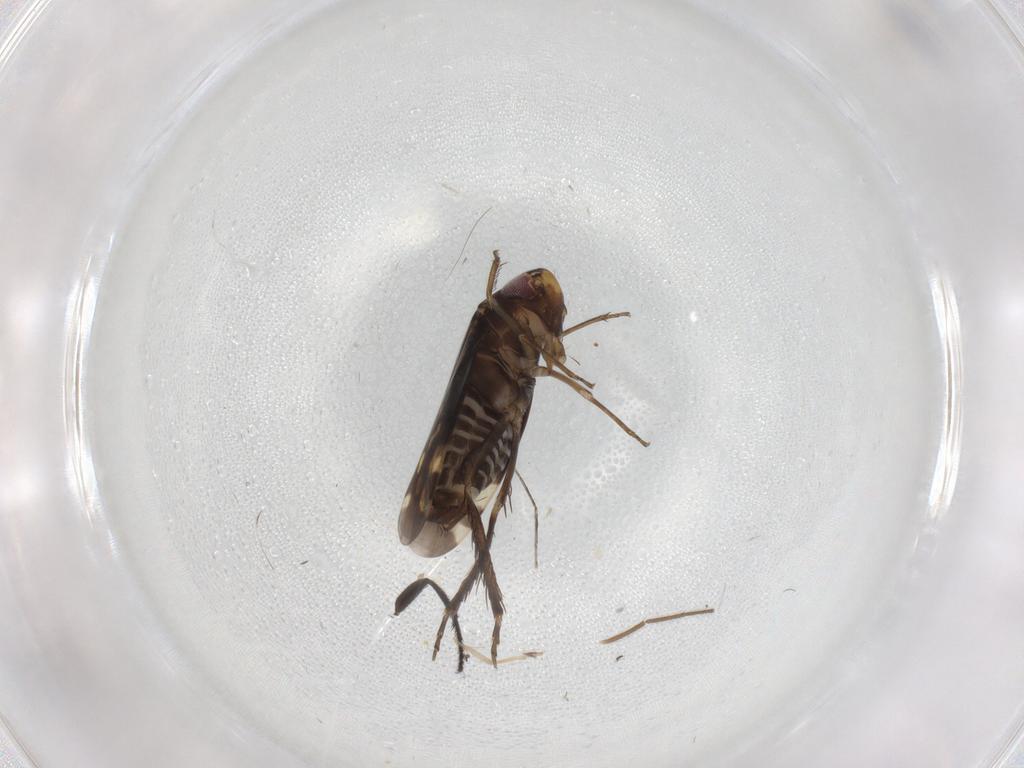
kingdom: Animalia
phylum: Arthropoda
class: Insecta
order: Hemiptera
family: Cicadellidae
